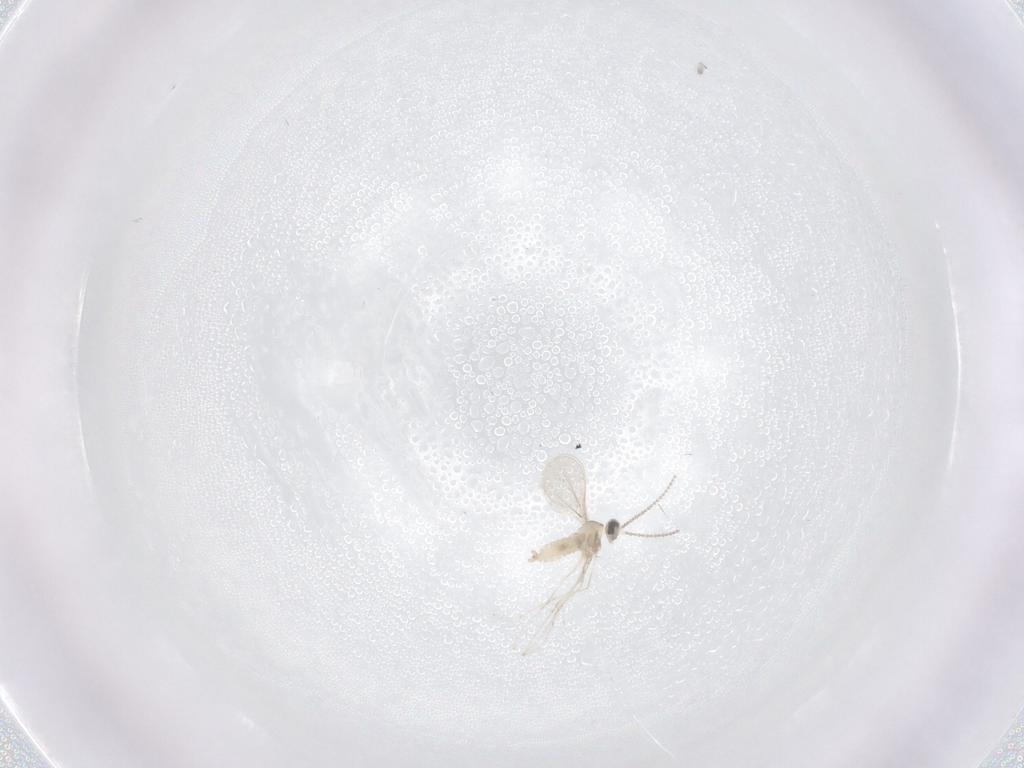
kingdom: Animalia
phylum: Arthropoda
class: Insecta
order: Diptera
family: Cecidomyiidae
